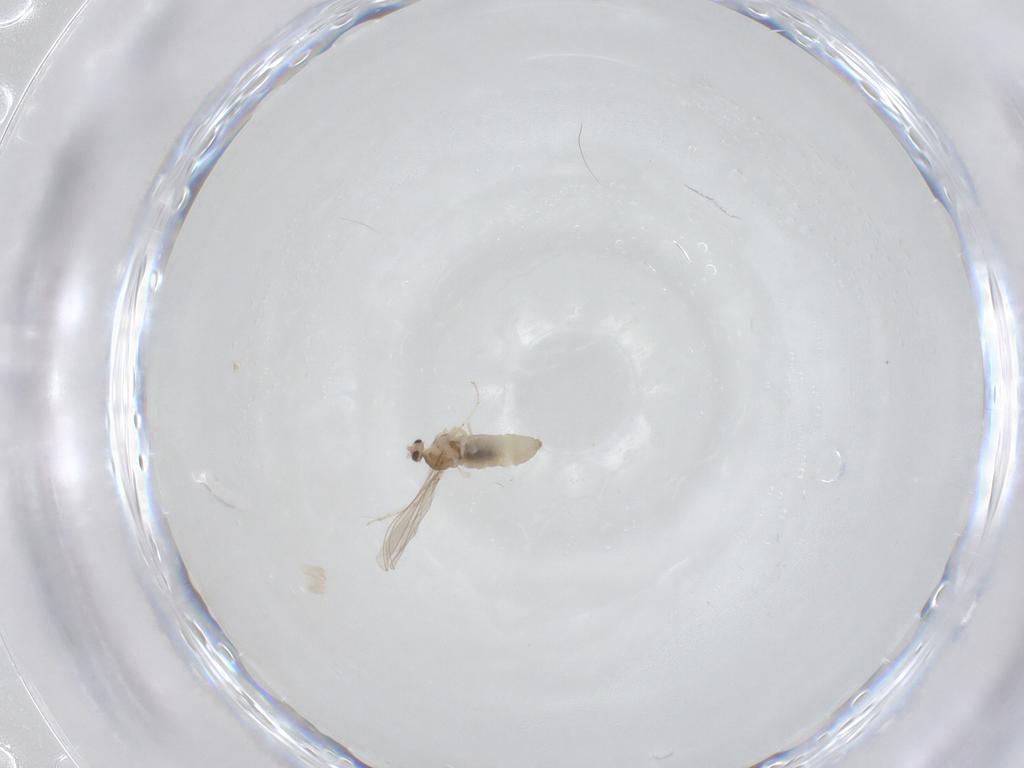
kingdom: Animalia
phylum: Arthropoda
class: Insecta
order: Diptera
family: Cecidomyiidae
